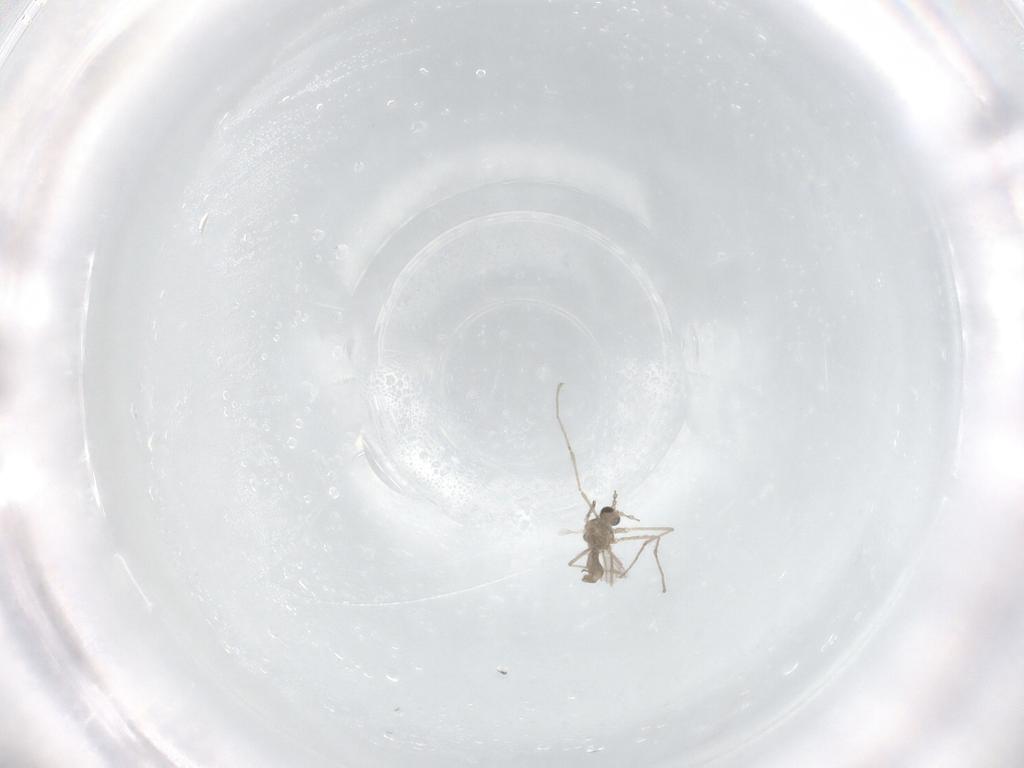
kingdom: Animalia
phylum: Arthropoda
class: Insecta
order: Diptera
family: Cecidomyiidae
